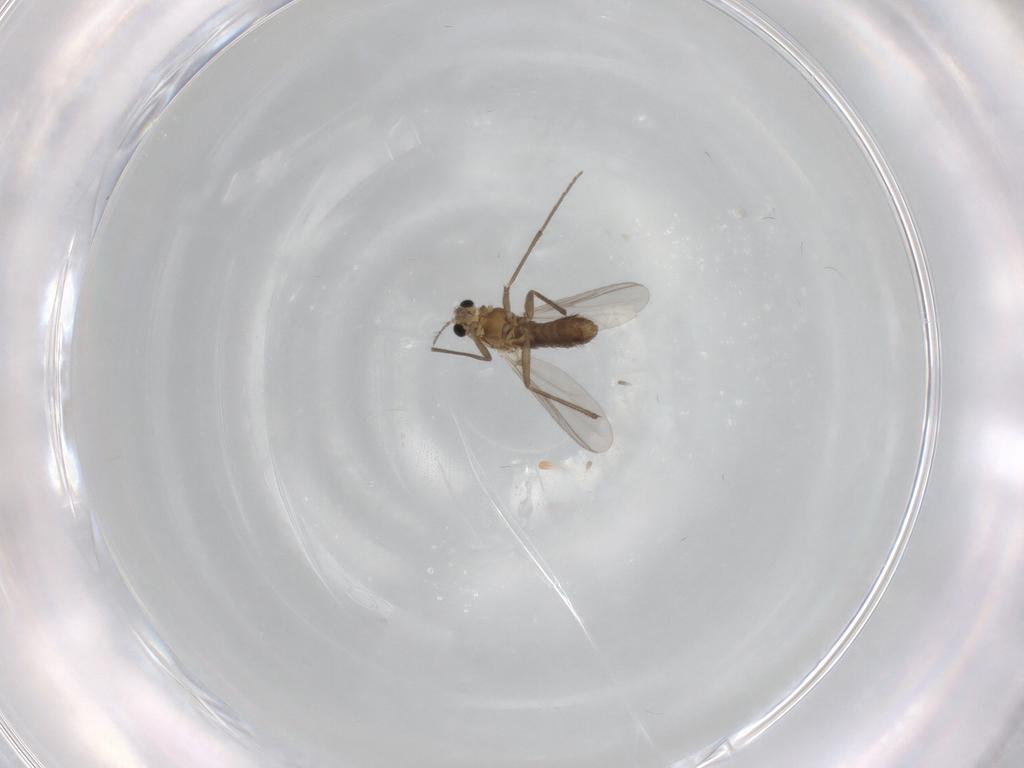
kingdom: Animalia
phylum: Arthropoda
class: Insecta
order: Diptera
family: Chironomidae
